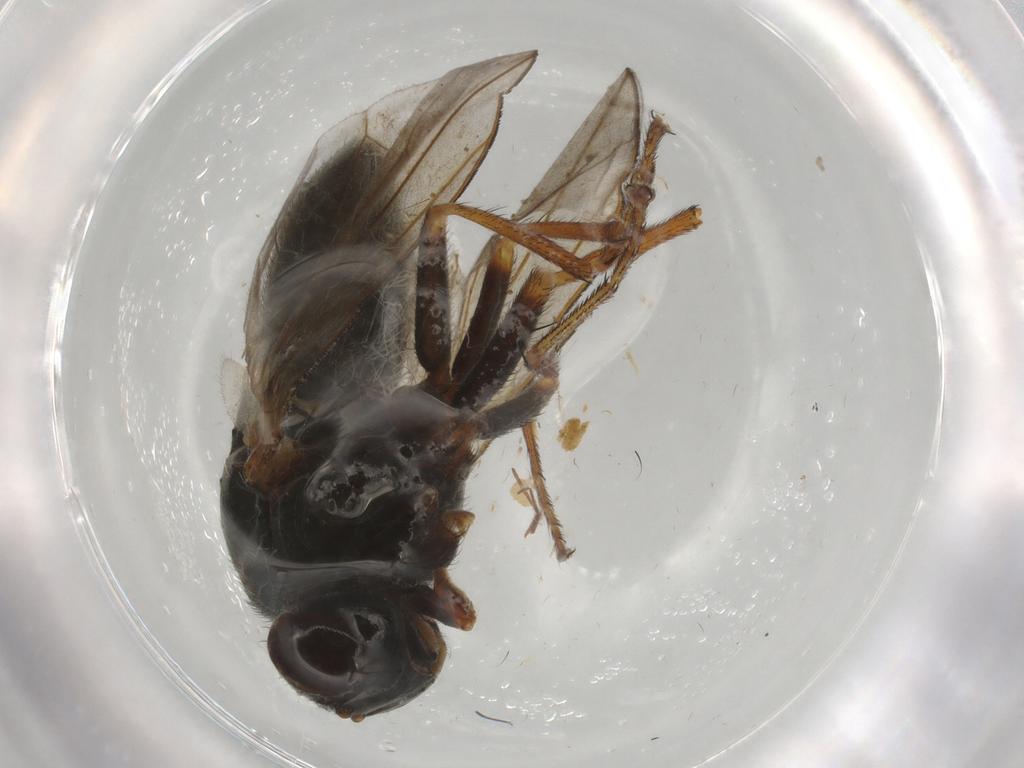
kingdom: Animalia
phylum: Arthropoda
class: Insecta
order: Diptera
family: Ephydridae
